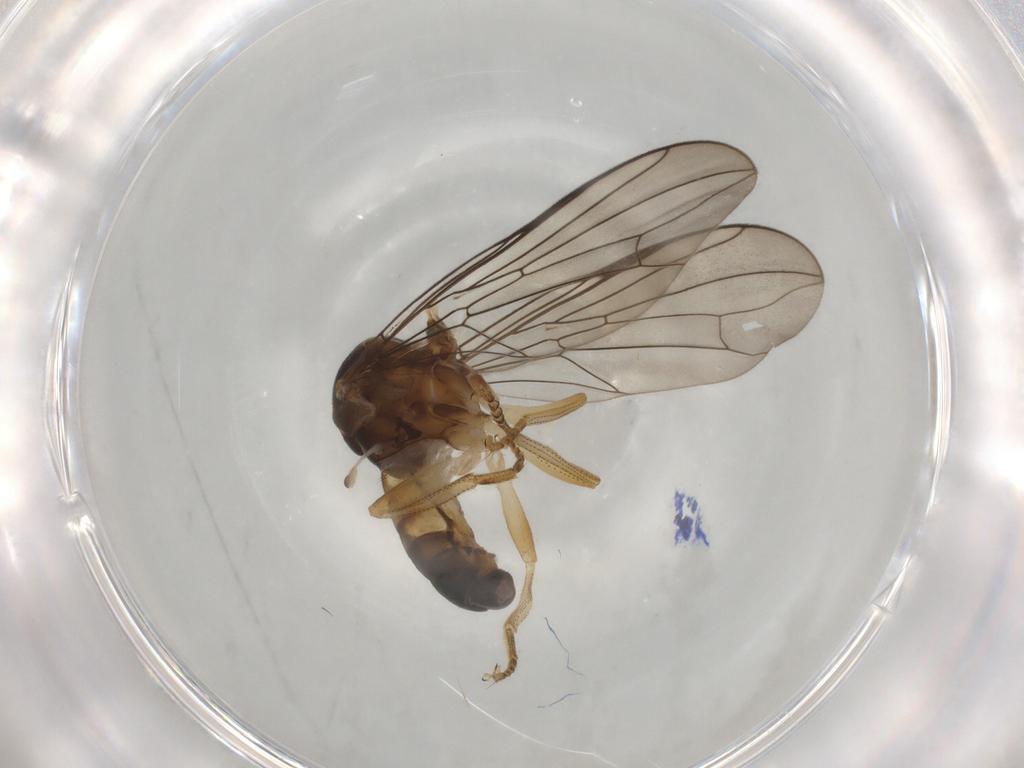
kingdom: Animalia
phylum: Arthropoda
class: Insecta
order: Diptera
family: Pipunculidae
